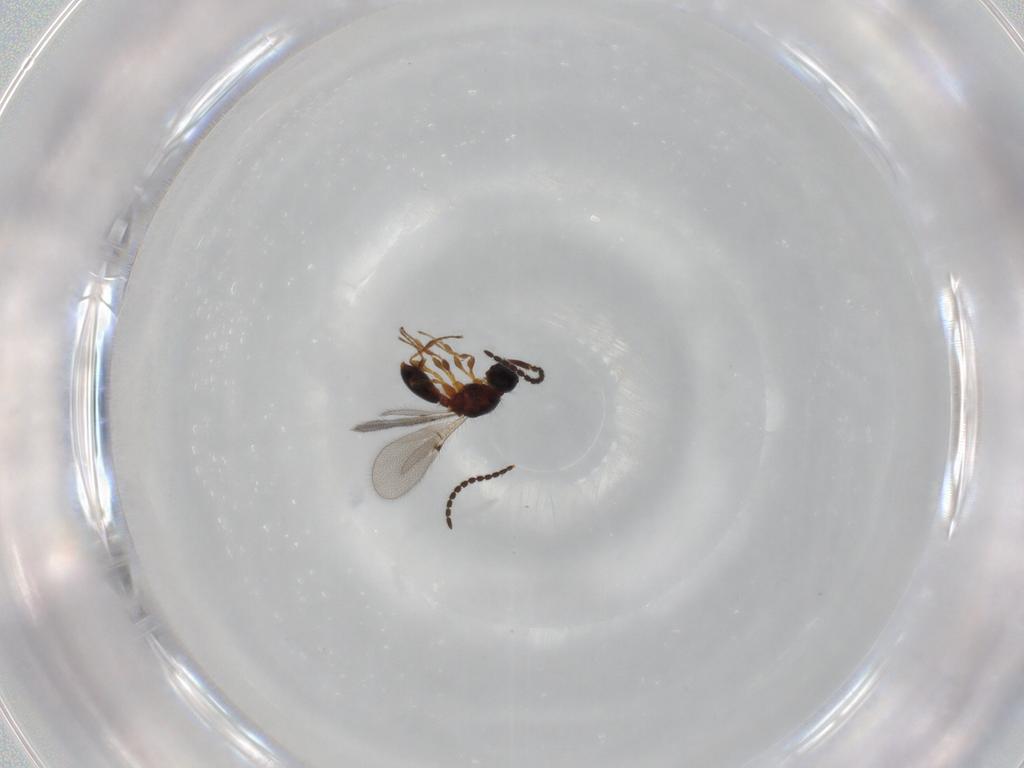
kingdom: Animalia
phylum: Arthropoda
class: Insecta
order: Hymenoptera
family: Diapriidae
